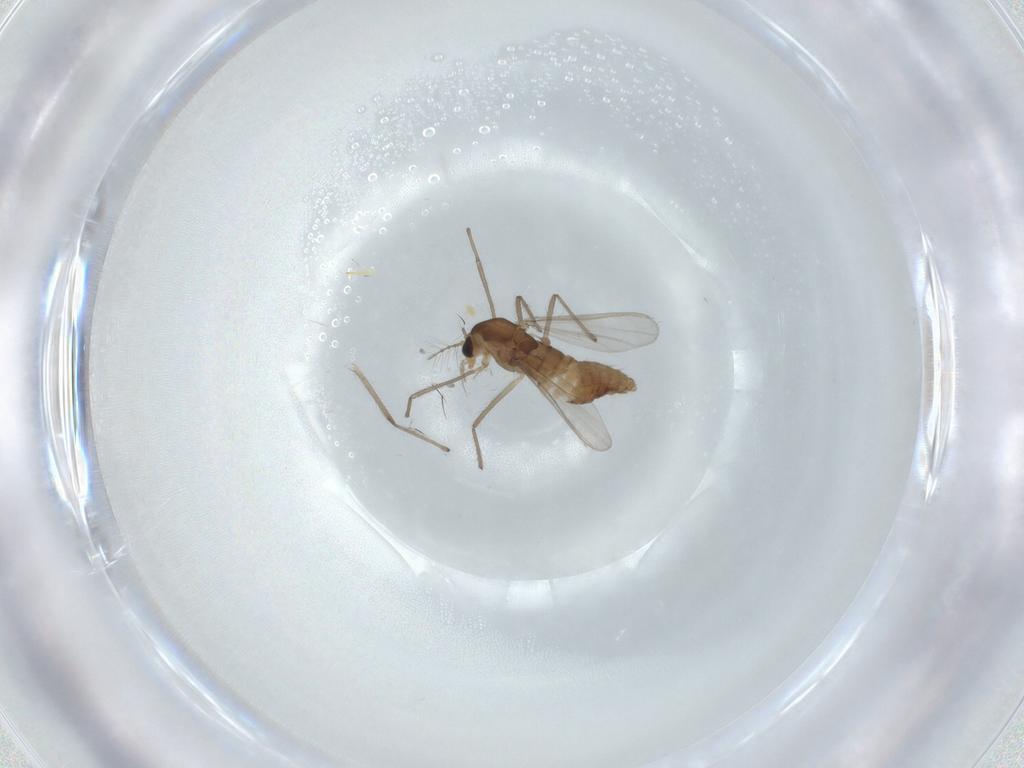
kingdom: Animalia
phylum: Arthropoda
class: Insecta
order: Diptera
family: Chironomidae
